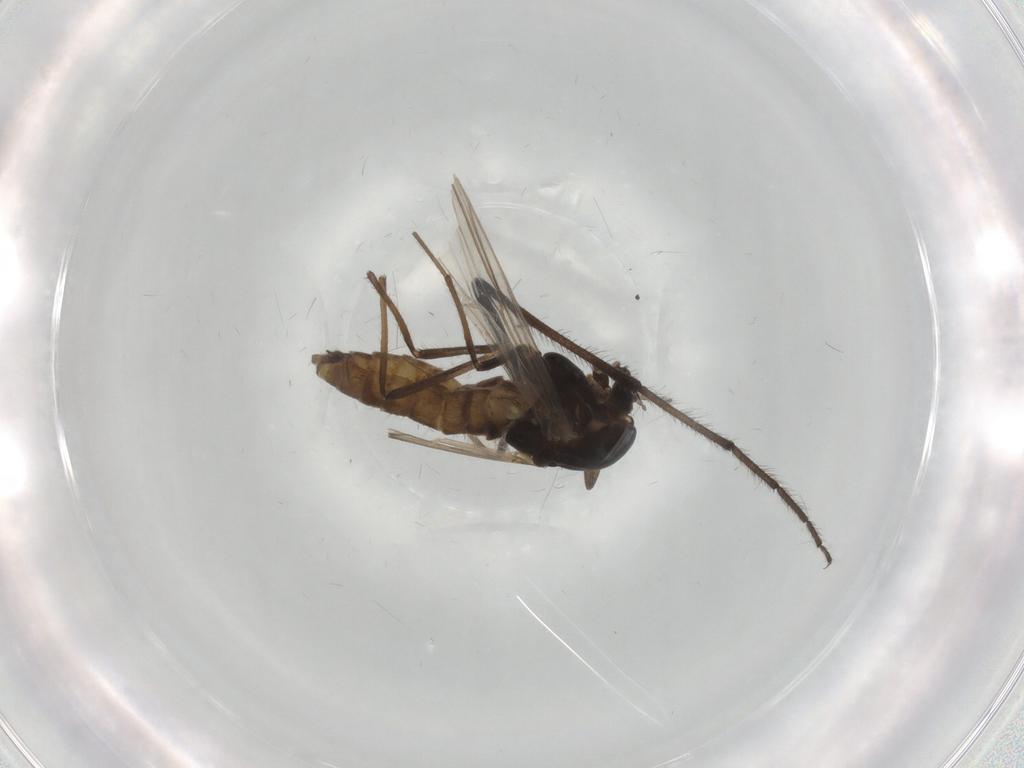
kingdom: Animalia
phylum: Arthropoda
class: Insecta
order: Diptera
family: Chironomidae
